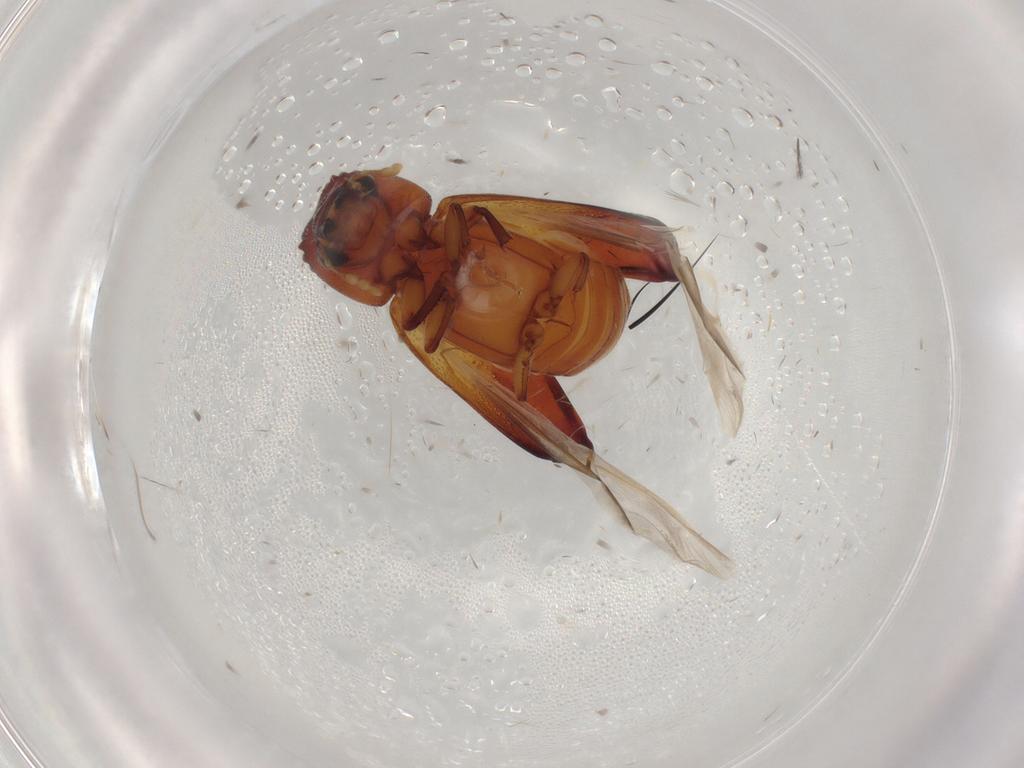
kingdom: Animalia
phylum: Arthropoda
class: Insecta
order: Coleoptera
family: Bostrichidae
